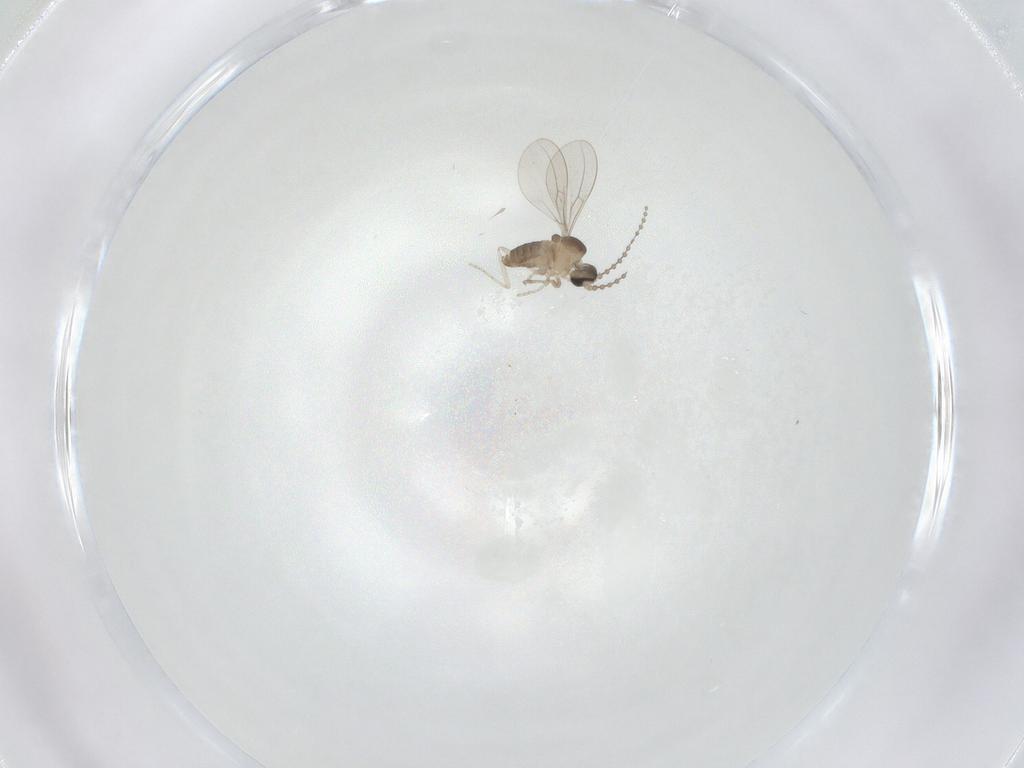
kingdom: Animalia
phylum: Arthropoda
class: Insecta
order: Diptera
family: Cecidomyiidae
